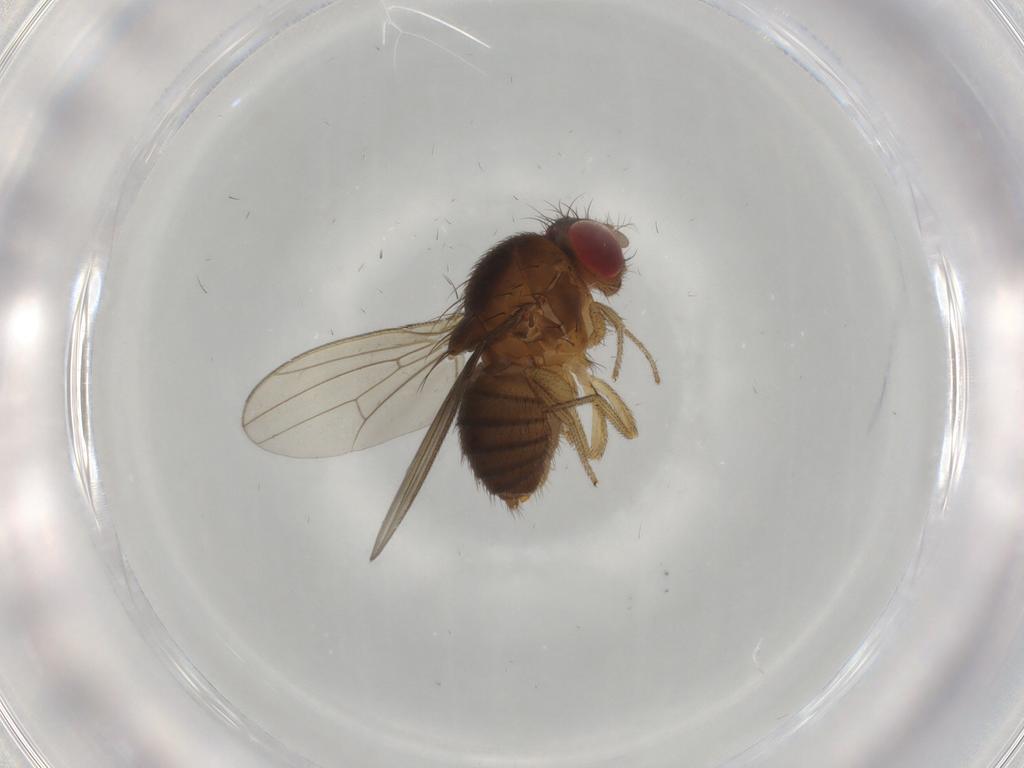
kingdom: Animalia
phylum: Arthropoda
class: Insecta
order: Diptera
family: Drosophilidae
